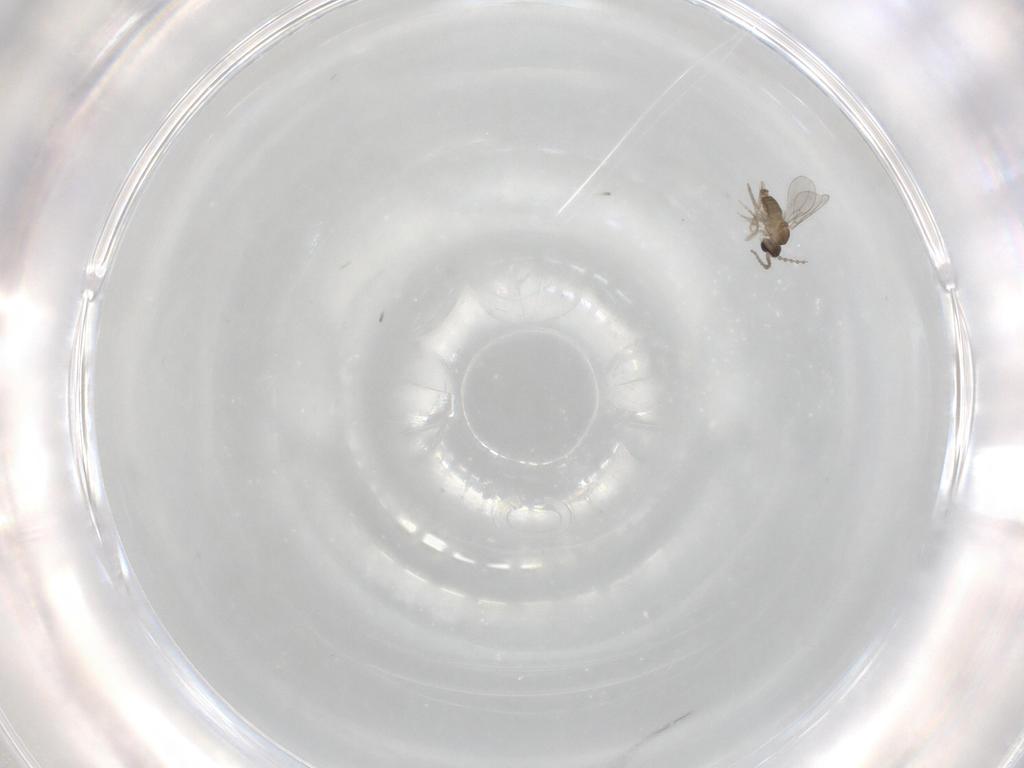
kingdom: Animalia
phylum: Arthropoda
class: Insecta
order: Diptera
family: Cecidomyiidae
